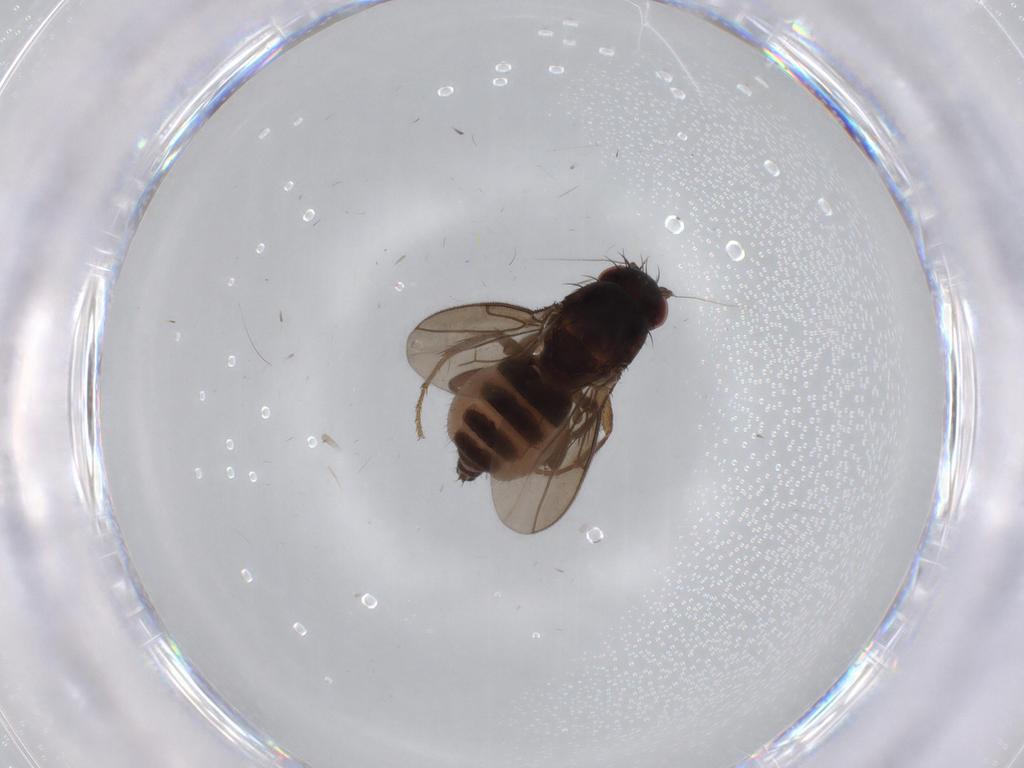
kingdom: Animalia
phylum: Arthropoda
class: Insecta
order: Diptera
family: Sphaeroceridae
